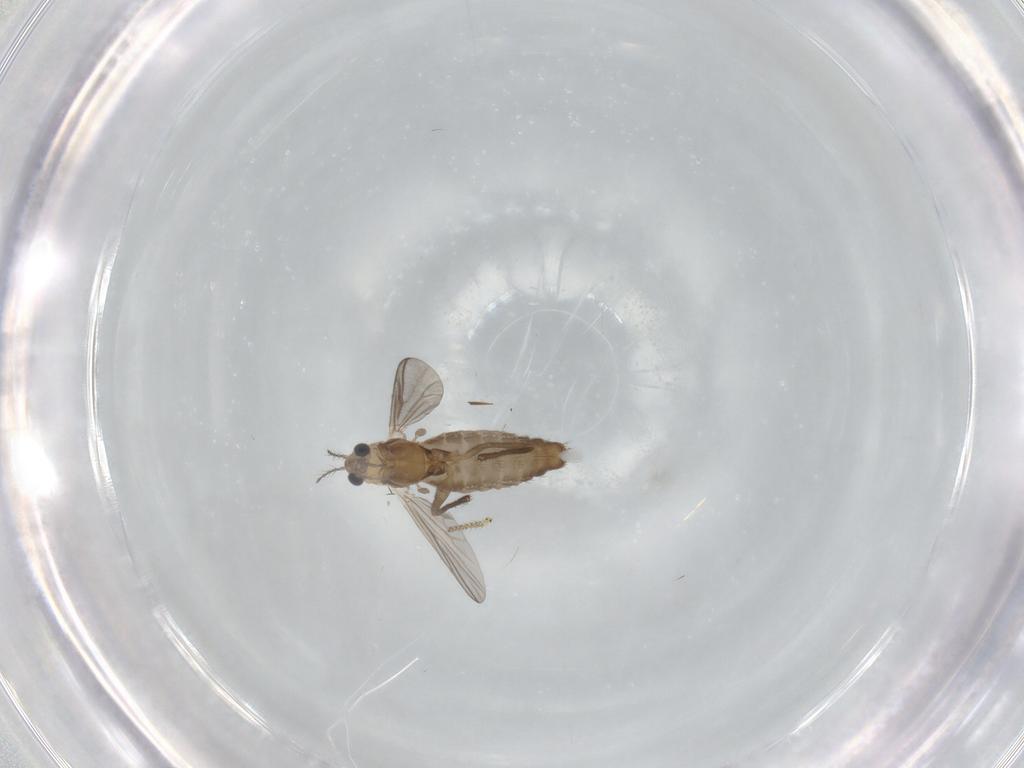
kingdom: Animalia
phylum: Arthropoda
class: Insecta
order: Diptera
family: Chironomidae
